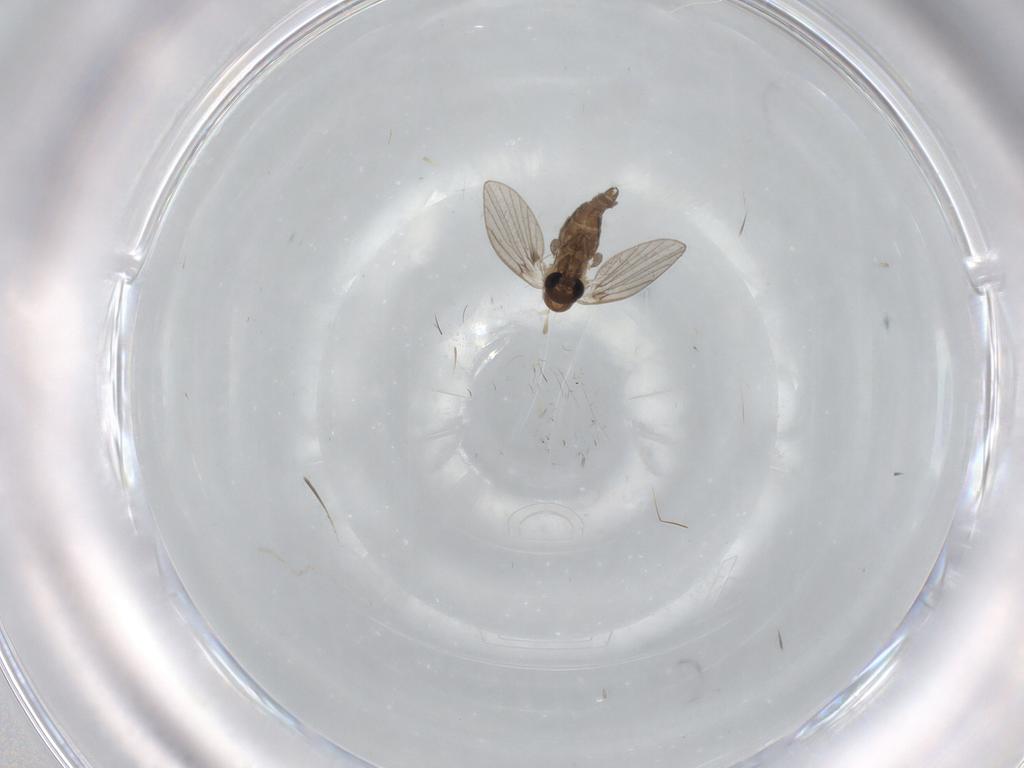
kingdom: Animalia
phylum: Arthropoda
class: Insecta
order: Diptera
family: Cecidomyiidae
